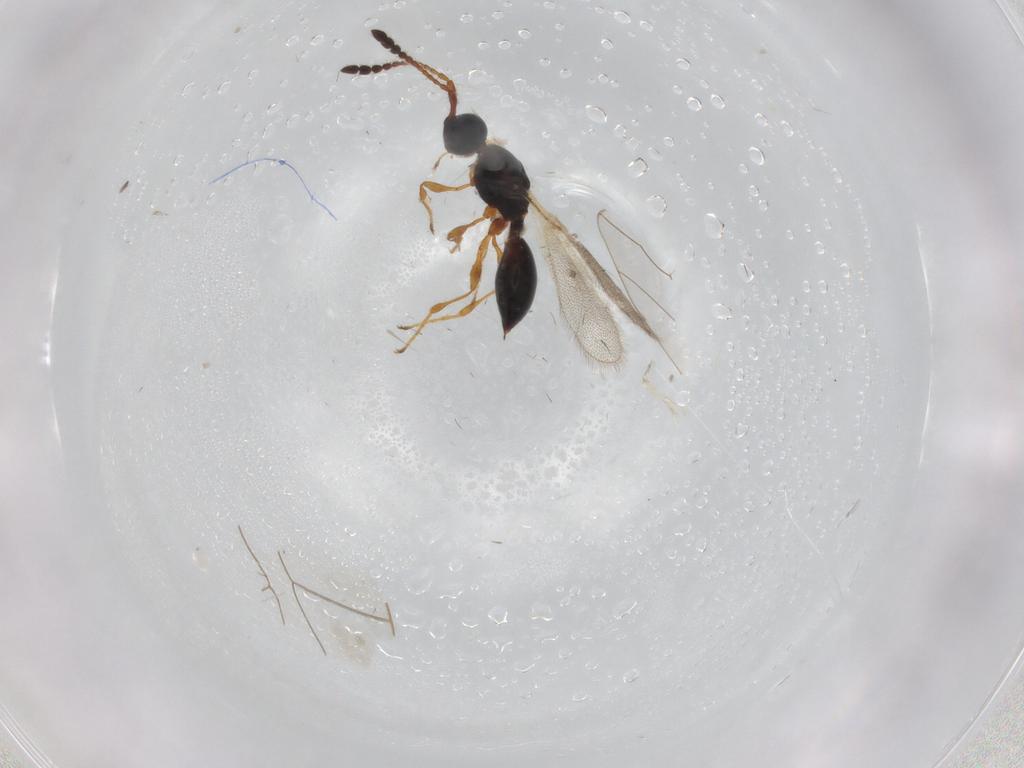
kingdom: Animalia
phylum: Arthropoda
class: Insecta
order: Hymenoptera
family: Diapriidae
